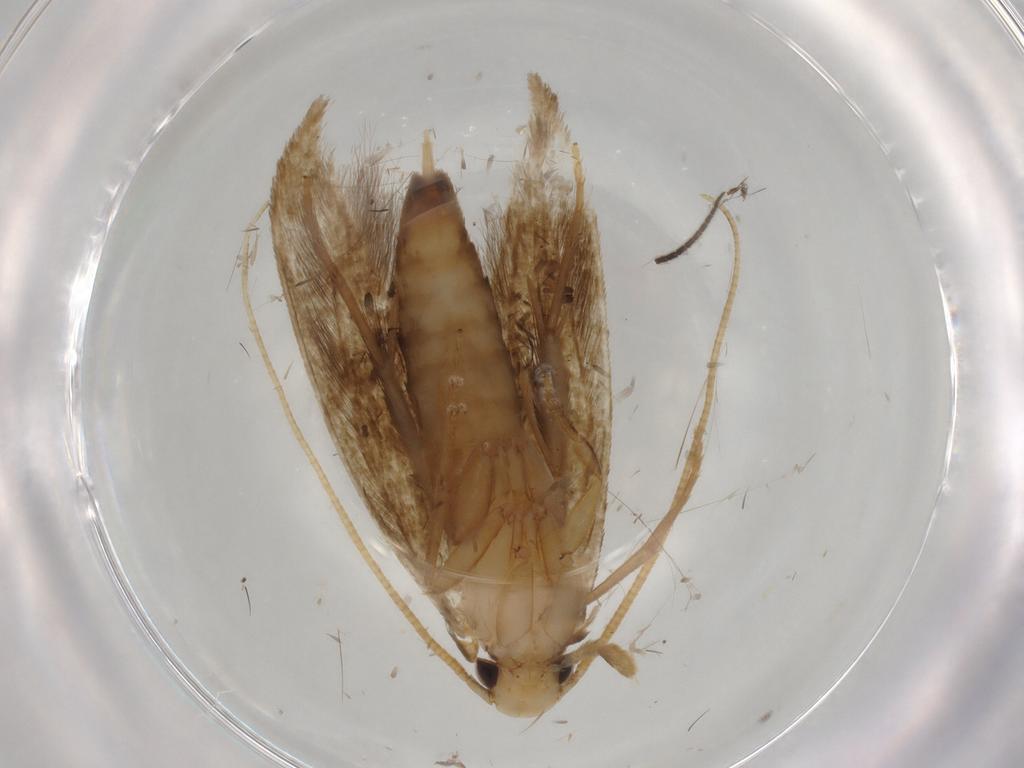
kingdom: Animalia
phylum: Arthropoda
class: Insecta
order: Lepidoptera
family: Tineidae
